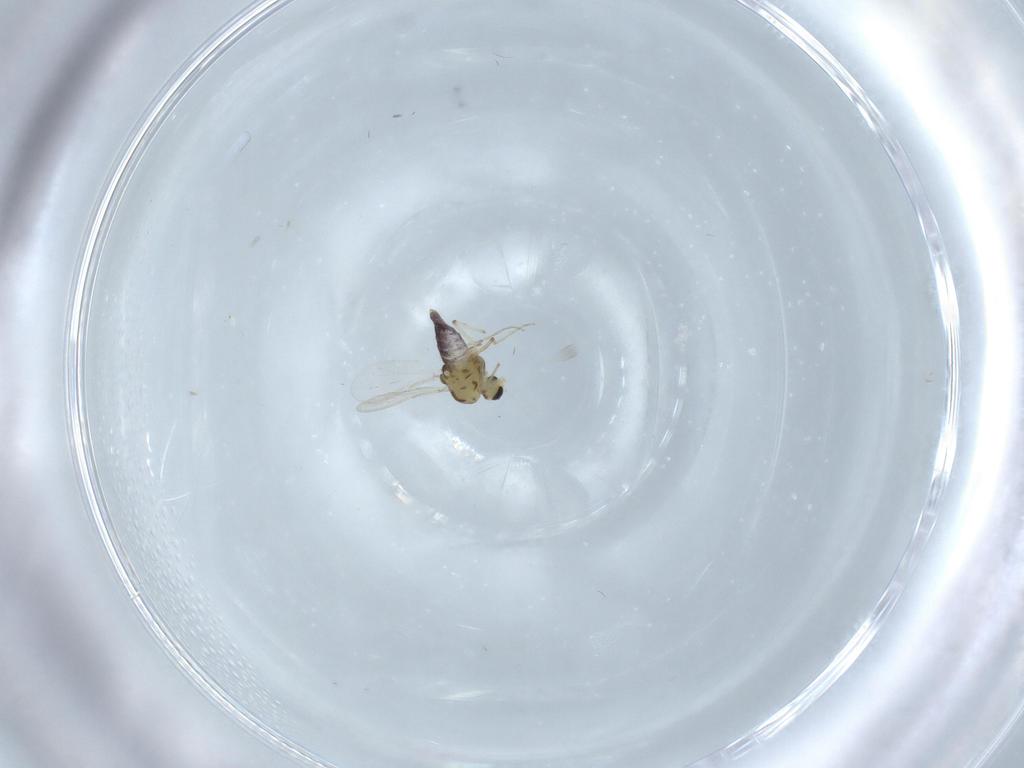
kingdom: Animalia
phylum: Arthropoda
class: Insecta
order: Diptera
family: Chironomidae
